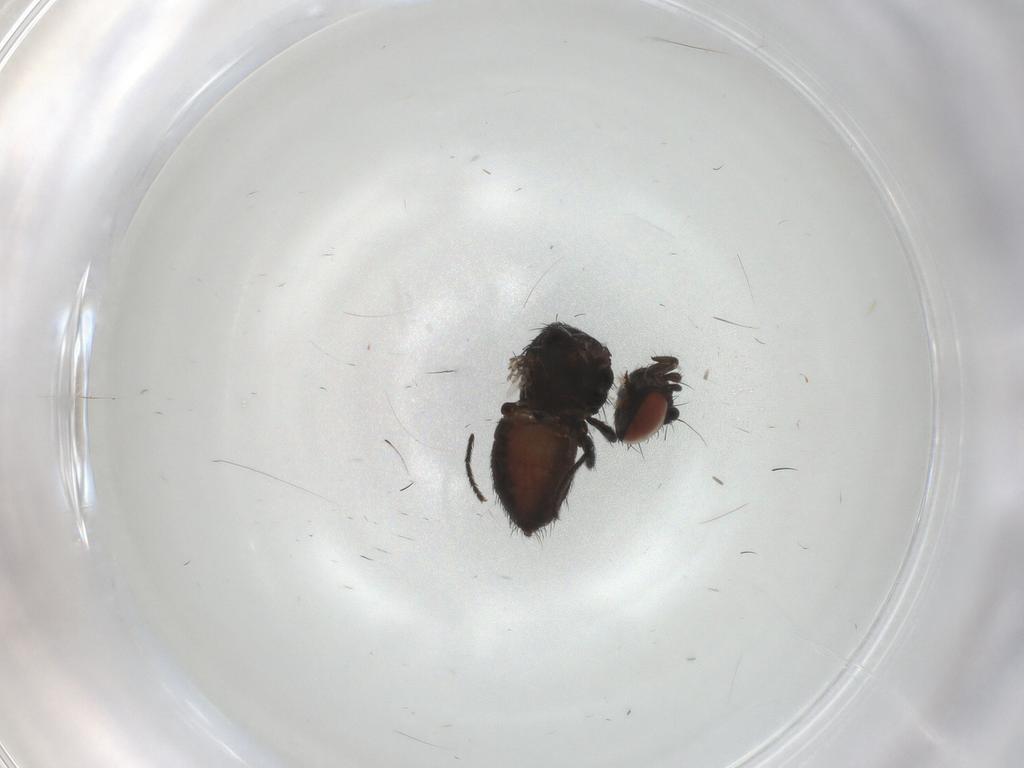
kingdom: Animalia
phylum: Arthropoda
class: Insecta
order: Diptera
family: Milichiidae
